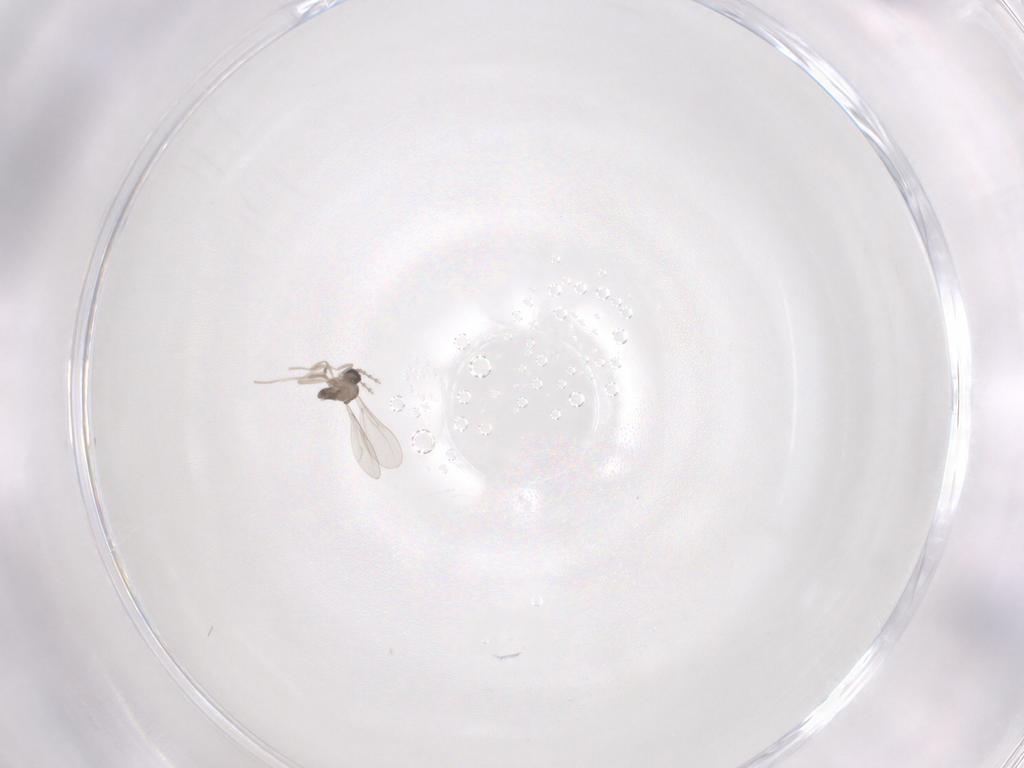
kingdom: Animalia
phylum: Arthropoda
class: Insecta
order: Diptera
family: Cecidomyiidae
